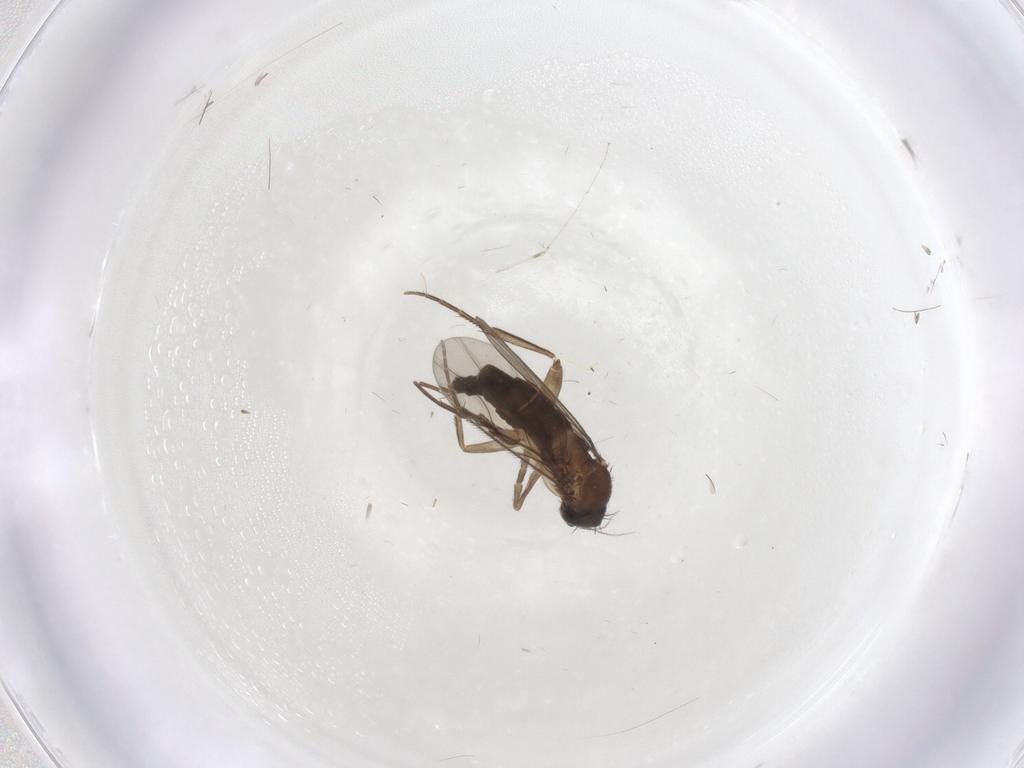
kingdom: Animalia
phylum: Arthropoda
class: Insecta
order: Diptera
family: Phoridae
